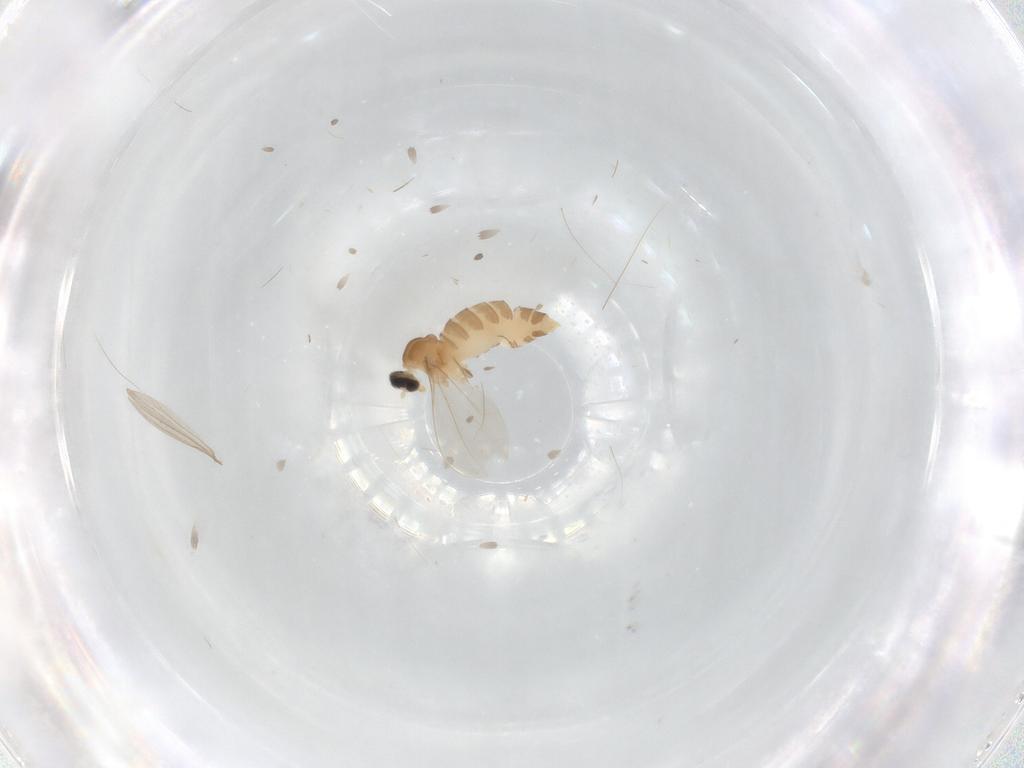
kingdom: Animalia
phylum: Arthropoda
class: Insecta
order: Diptera
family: Cecidomyiidae
